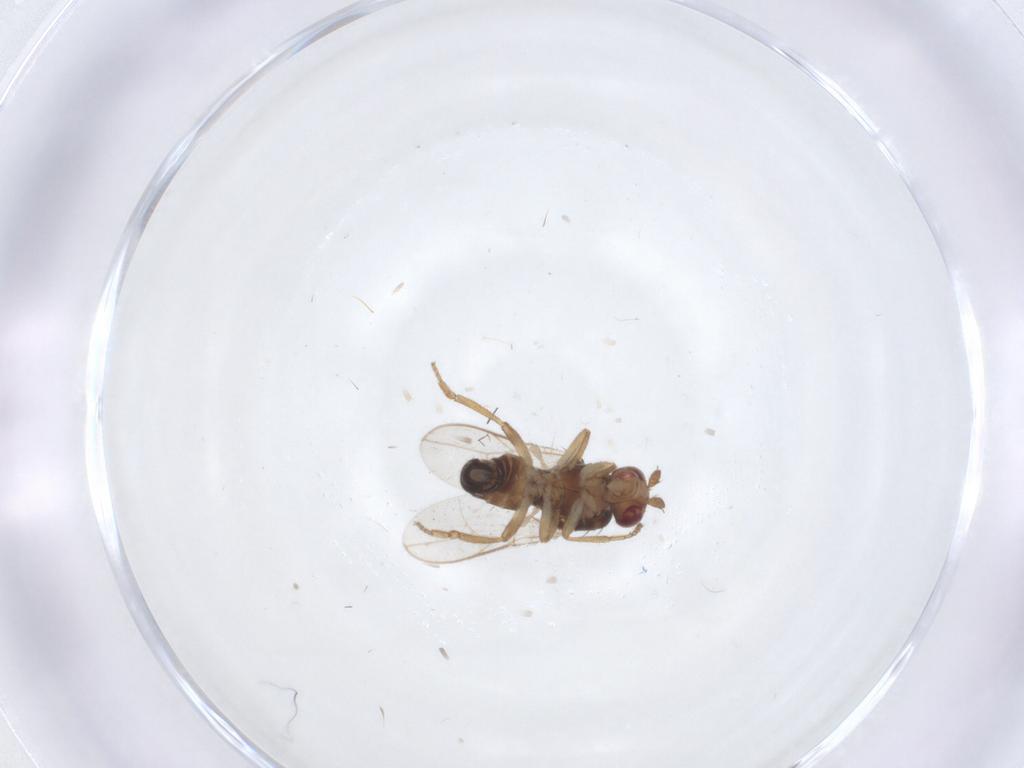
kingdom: Animalia
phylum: Arthropoda
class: Insecta
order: Diptera
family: Sphaeroceridae
